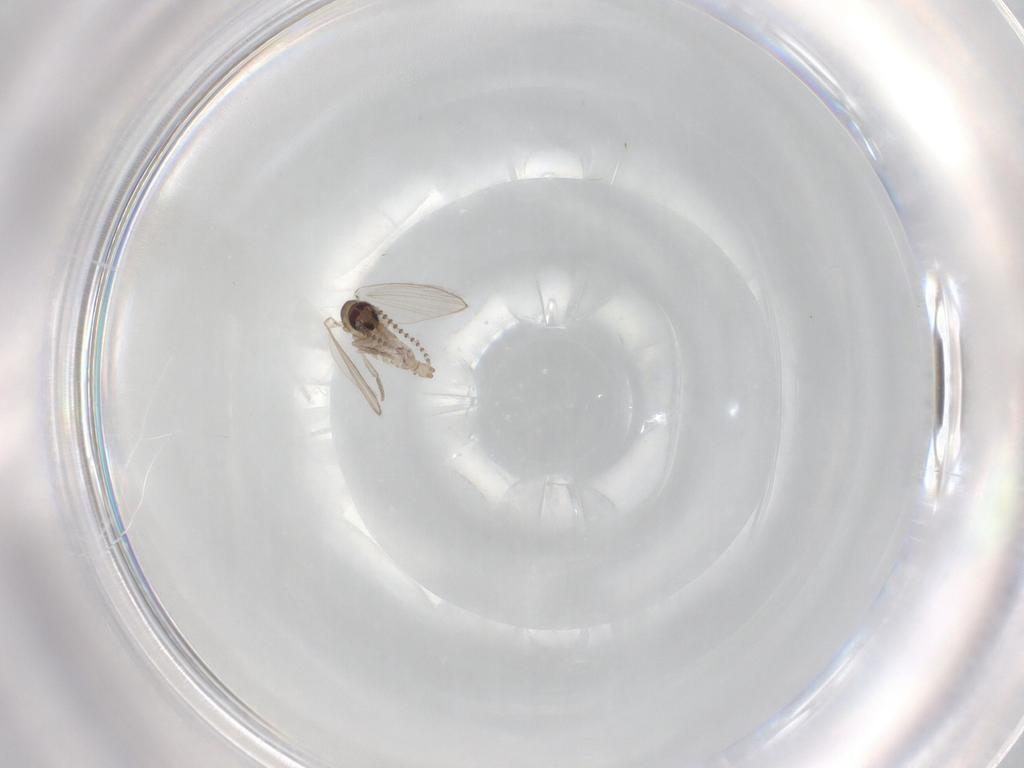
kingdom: Animalia
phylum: Arthropoda
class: Insecta
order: Diptera
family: Psychodidae
